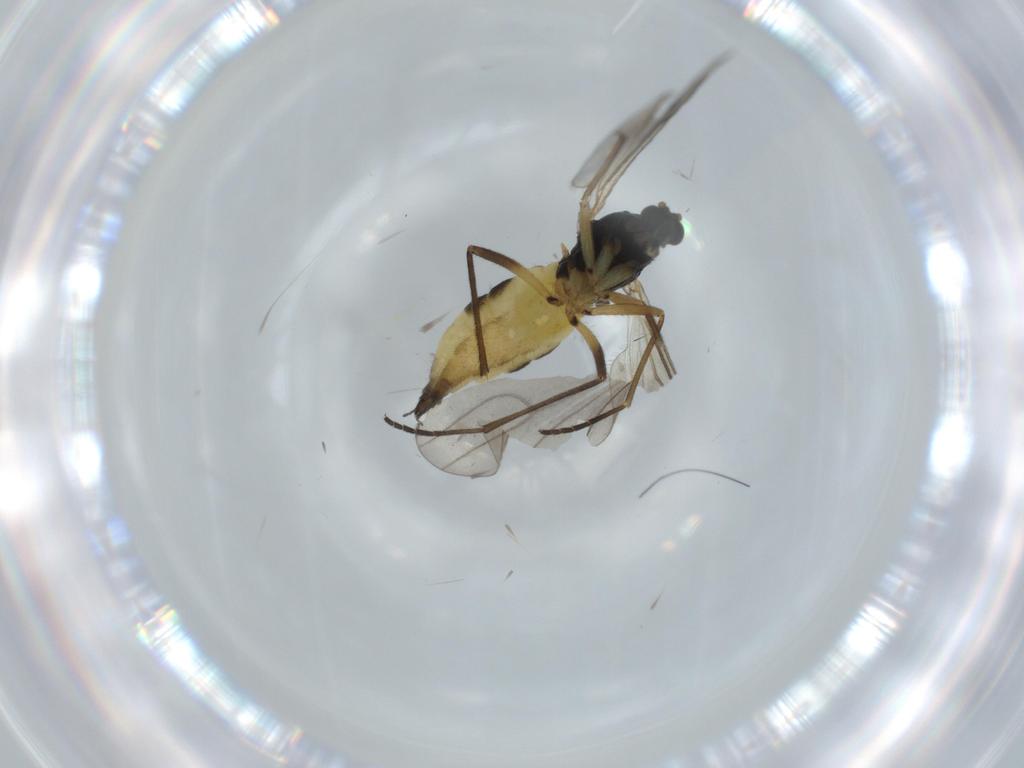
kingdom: Animalia
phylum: Arthropoda
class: Insecta
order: Diptera
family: Sciaridae
